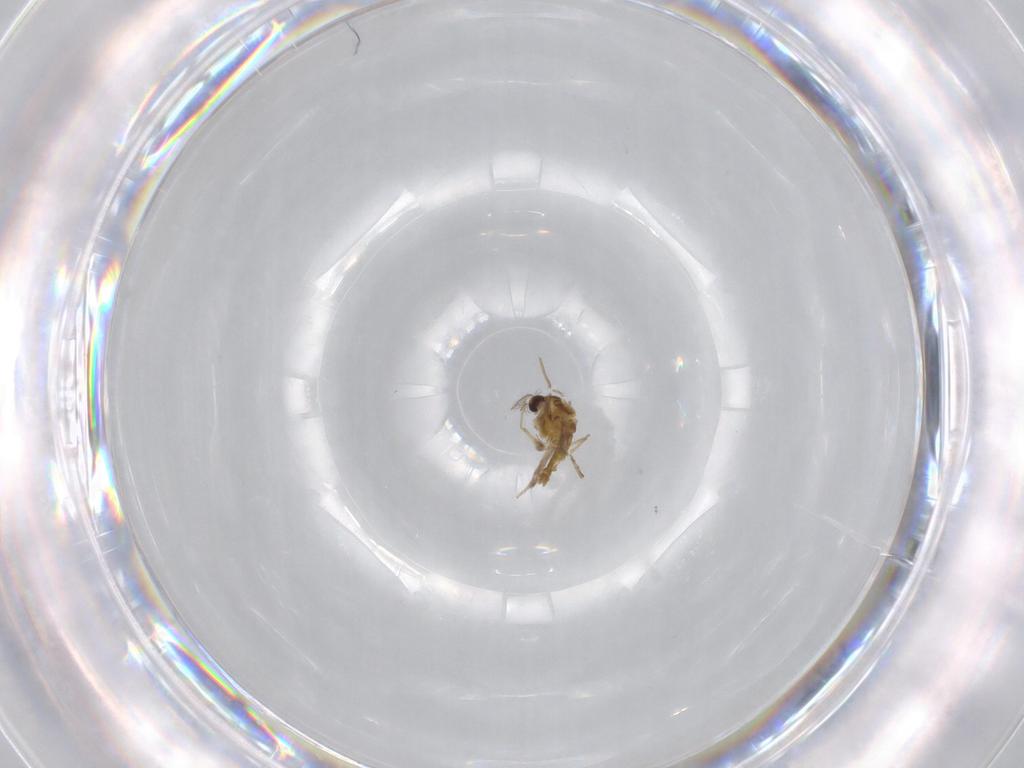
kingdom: Animalia
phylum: Arthropoda
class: Insecta
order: Diptera
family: Chironomidae
